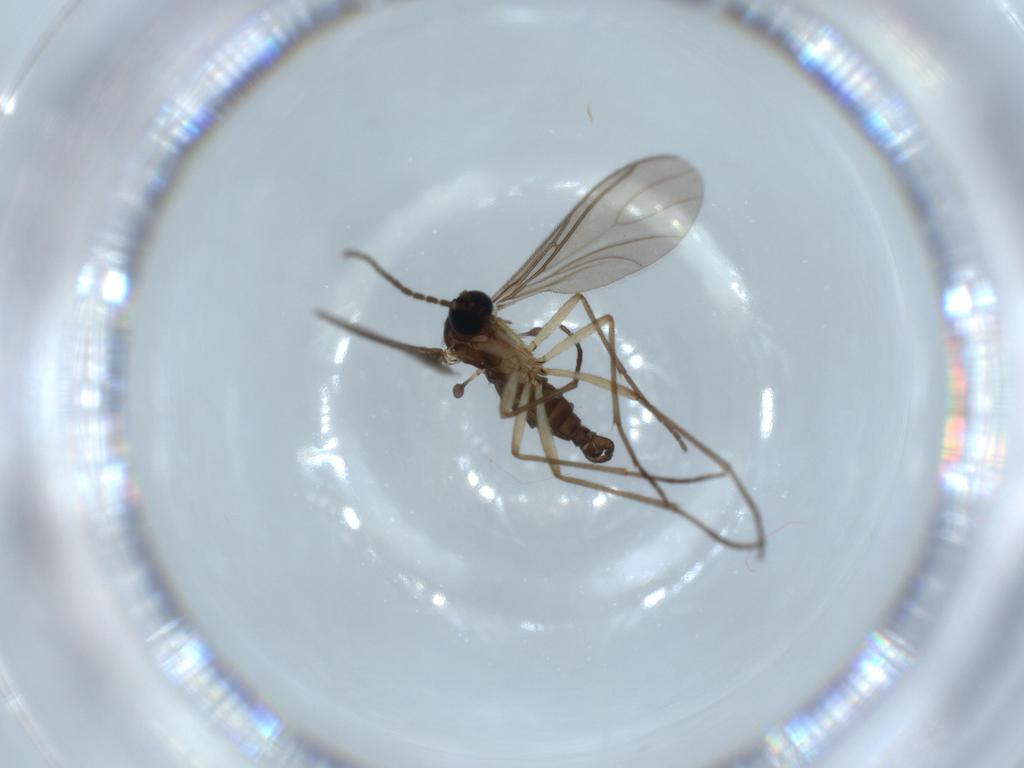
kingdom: Animalia
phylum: Arthropoda
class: Insecta
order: Diptera
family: Sciaridae
